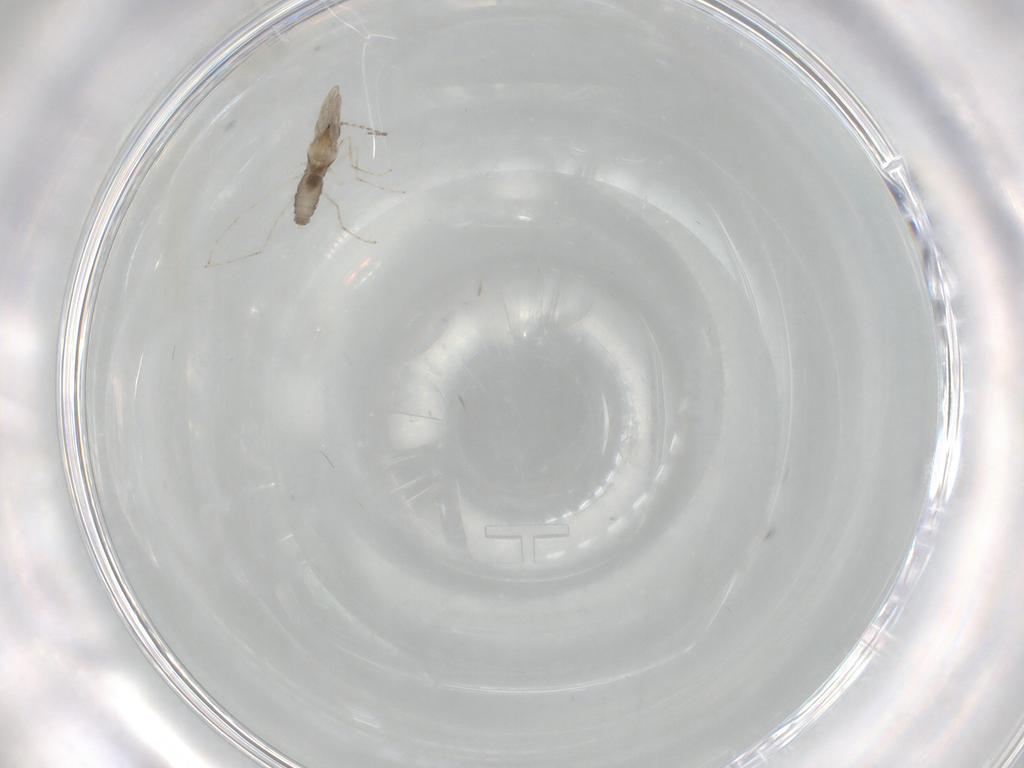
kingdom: Animalia
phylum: Arthropoda
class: Insecta
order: Diptera
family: Cecidomyiidae
